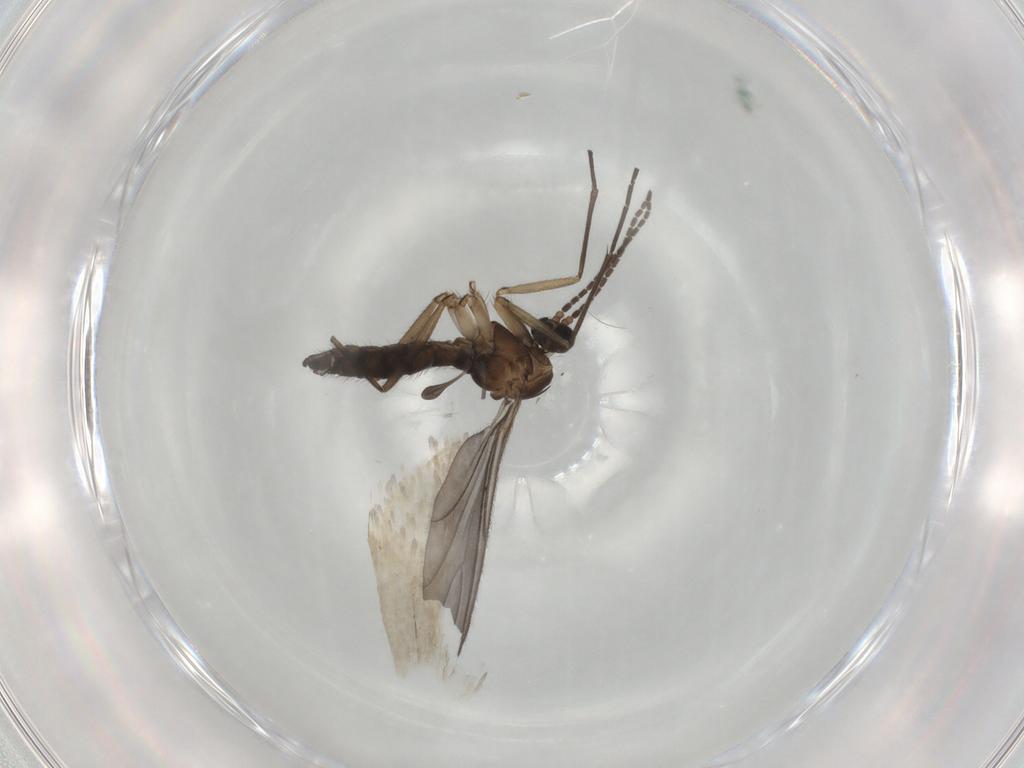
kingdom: Animalia
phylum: Arthropoda
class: Insecta
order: Diptera
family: Sciaridae
